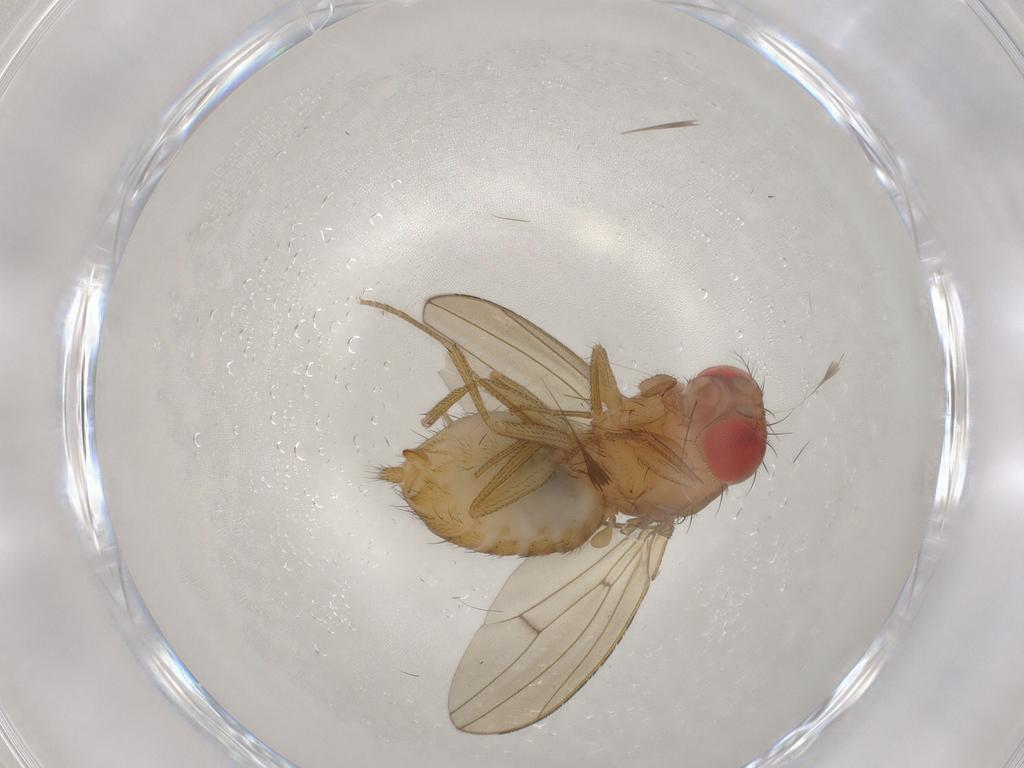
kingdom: Animalia
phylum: Arthropoda
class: Insecta
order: Diptera
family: Drosophilidae
